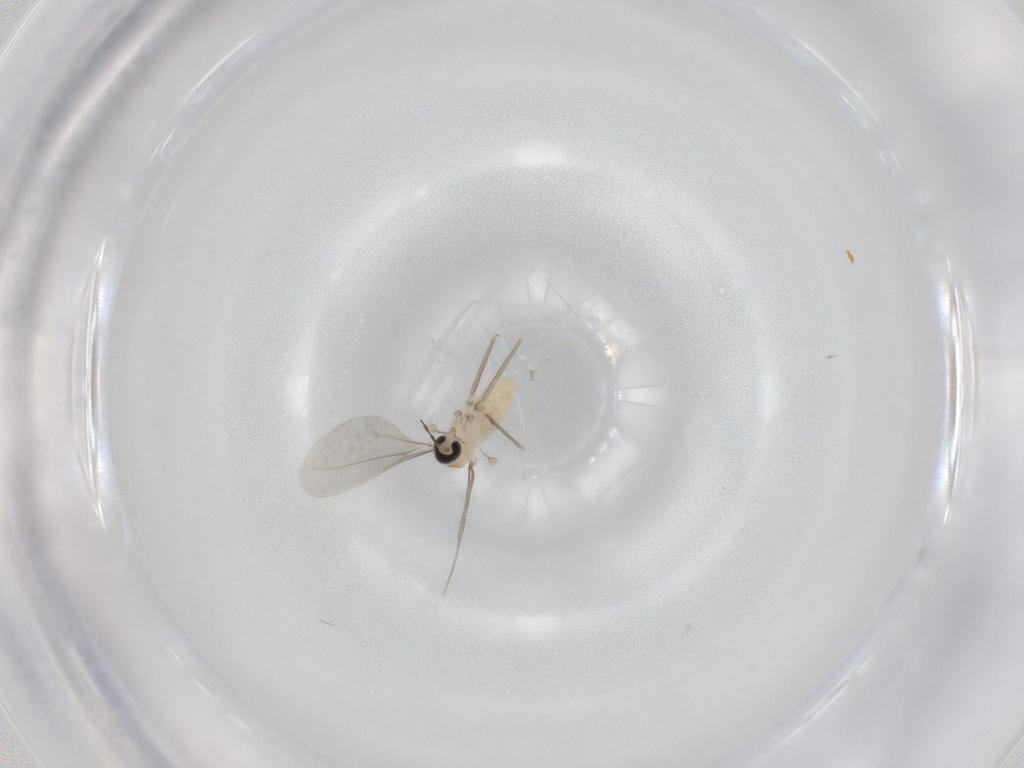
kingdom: Animalia
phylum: Arthropoda
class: Insecta
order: Diptera
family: Cecidomyiidae
